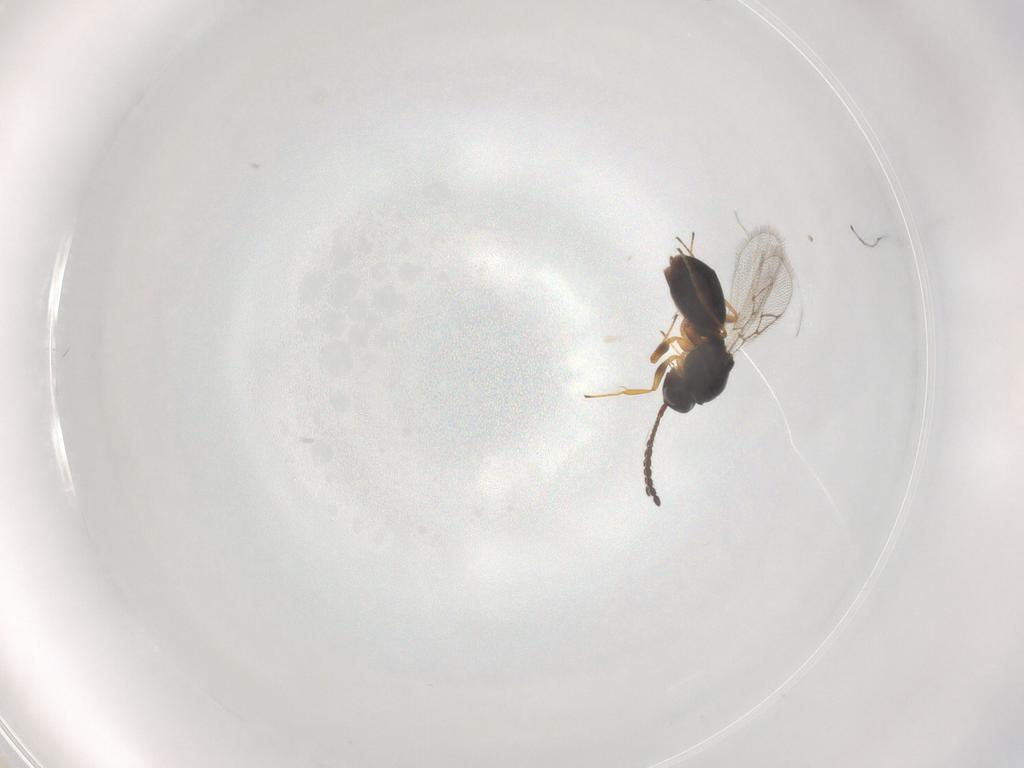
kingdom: Animalia
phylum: Arthropoda
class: Insecta
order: Hymenoptera
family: Figitidae
